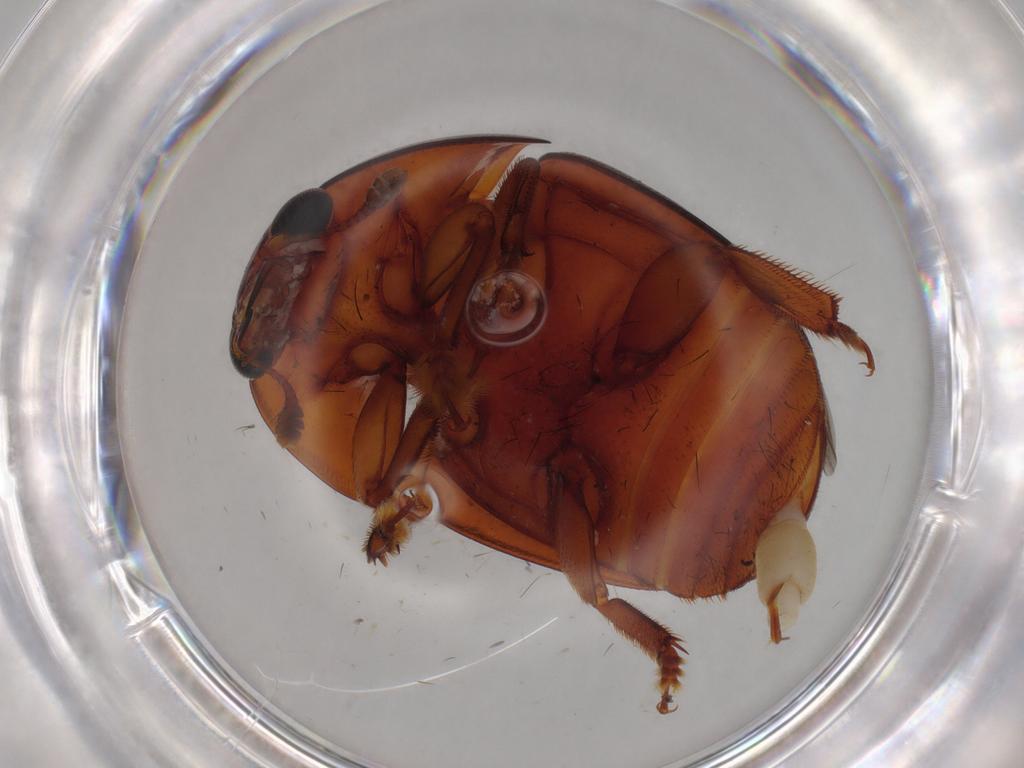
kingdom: Animalia
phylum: Arthropoda
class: Insecta
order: Coleoptera
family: Nitidulidae
